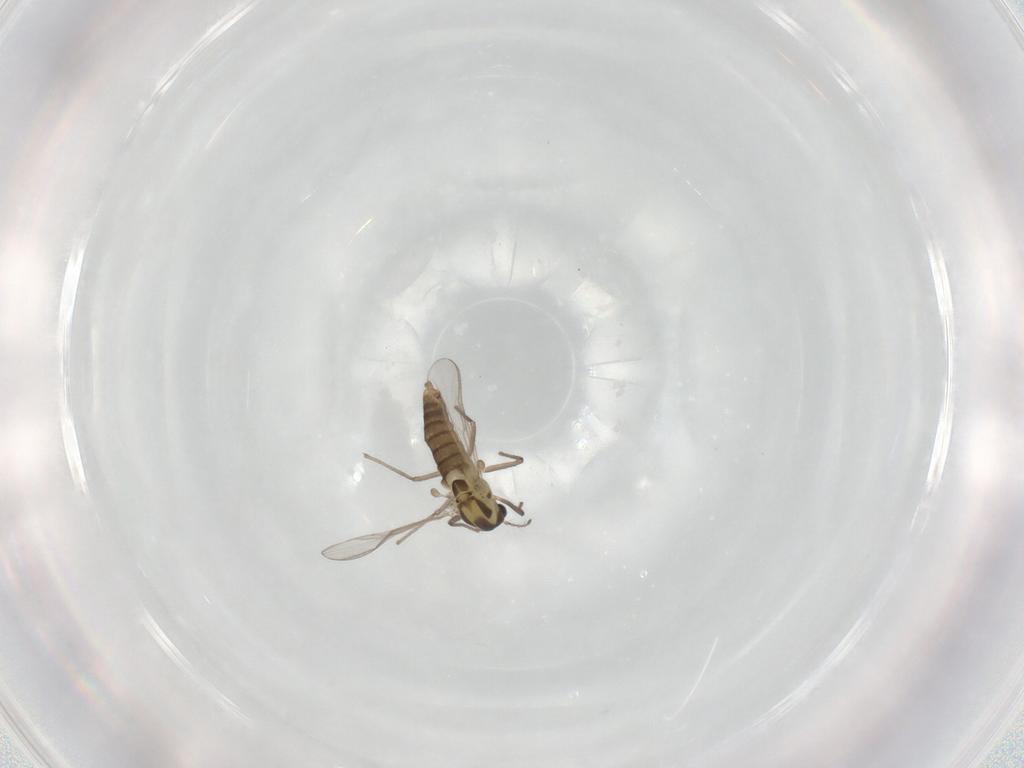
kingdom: Animalia
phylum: Arthropoda
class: Insecta
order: Diptera
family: Chironomidae
